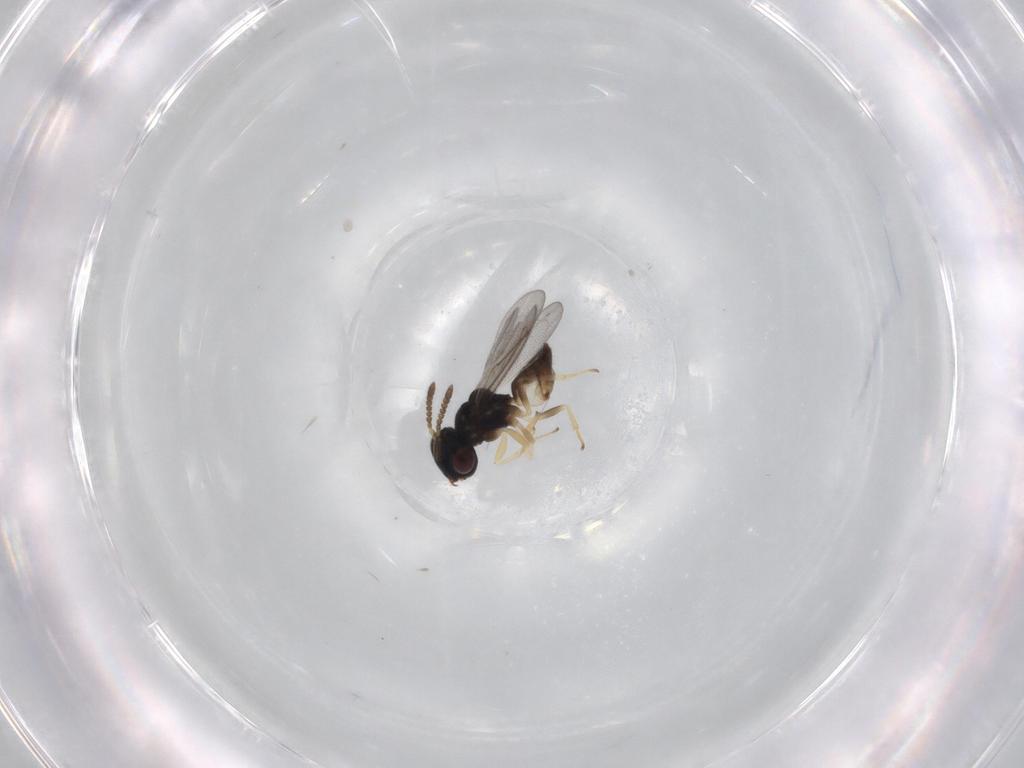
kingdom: Animalia
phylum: Arthropoda
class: Insecta
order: Hymenoptera
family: Pteromalidae
